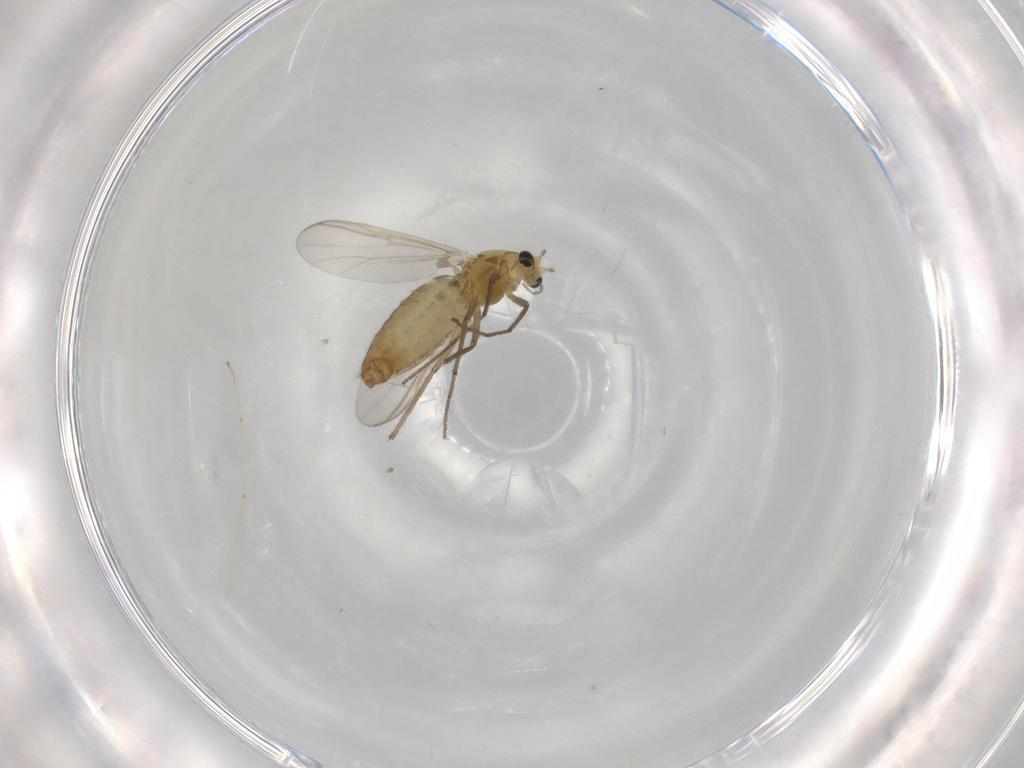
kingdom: Animalia
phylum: Arthropoda
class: Insecta
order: Diptera
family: Chironomidae
